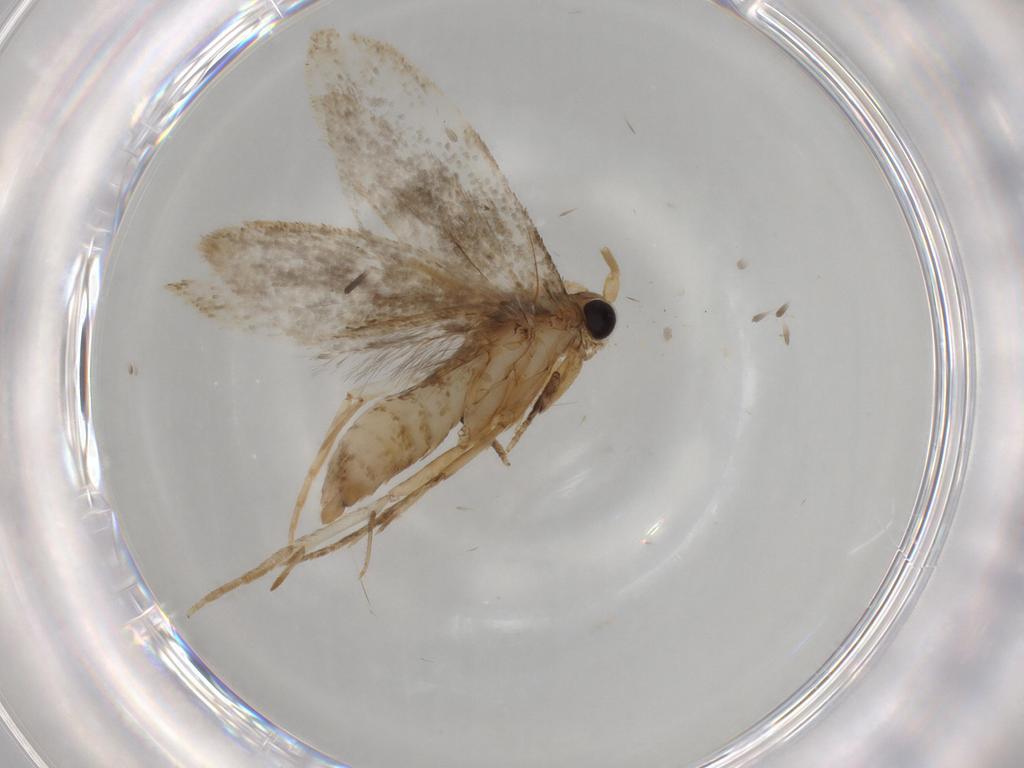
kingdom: Animalia
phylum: Arthropoda
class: Insecta
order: Lepidoptera
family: Tineidae
